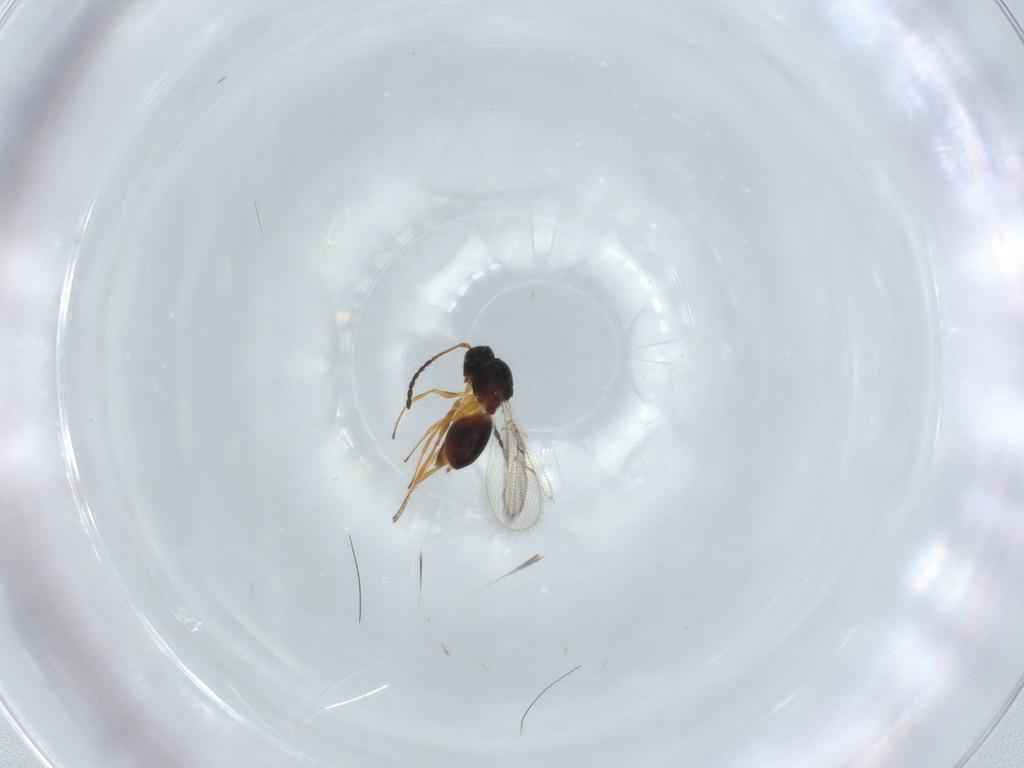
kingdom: Animalia
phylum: Arthropoda
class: Insecta
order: Hymenoptera
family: Figitidae
